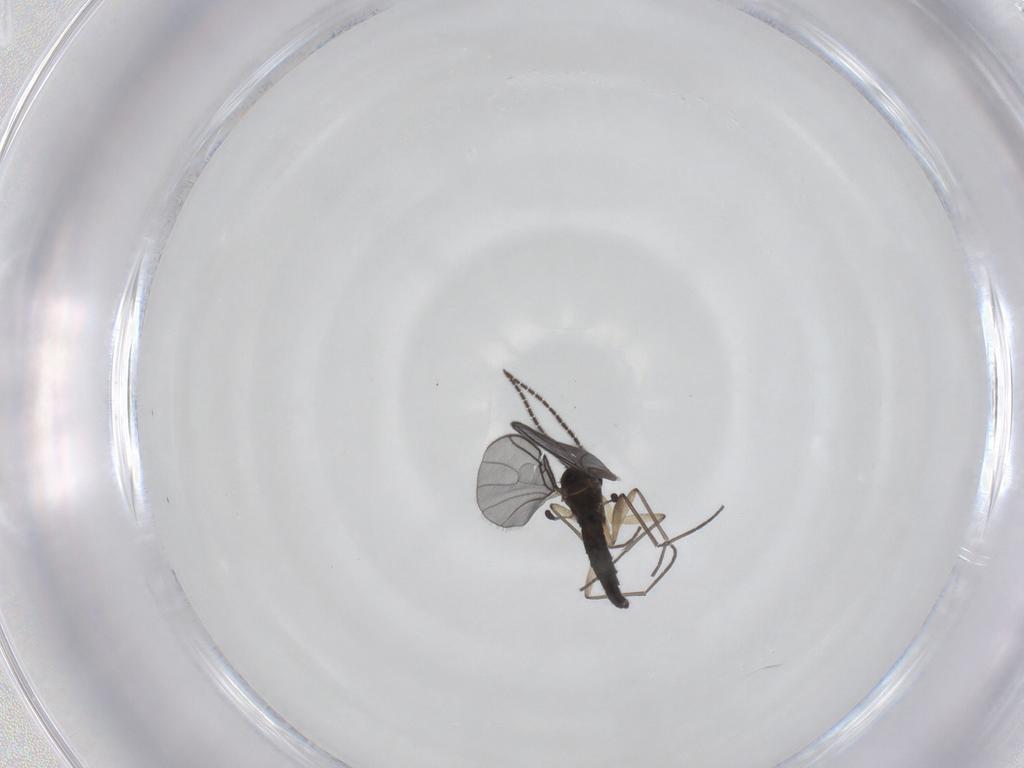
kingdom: Animalia
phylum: Arthropoda
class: Insecta
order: Diptera
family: Sciaridae
